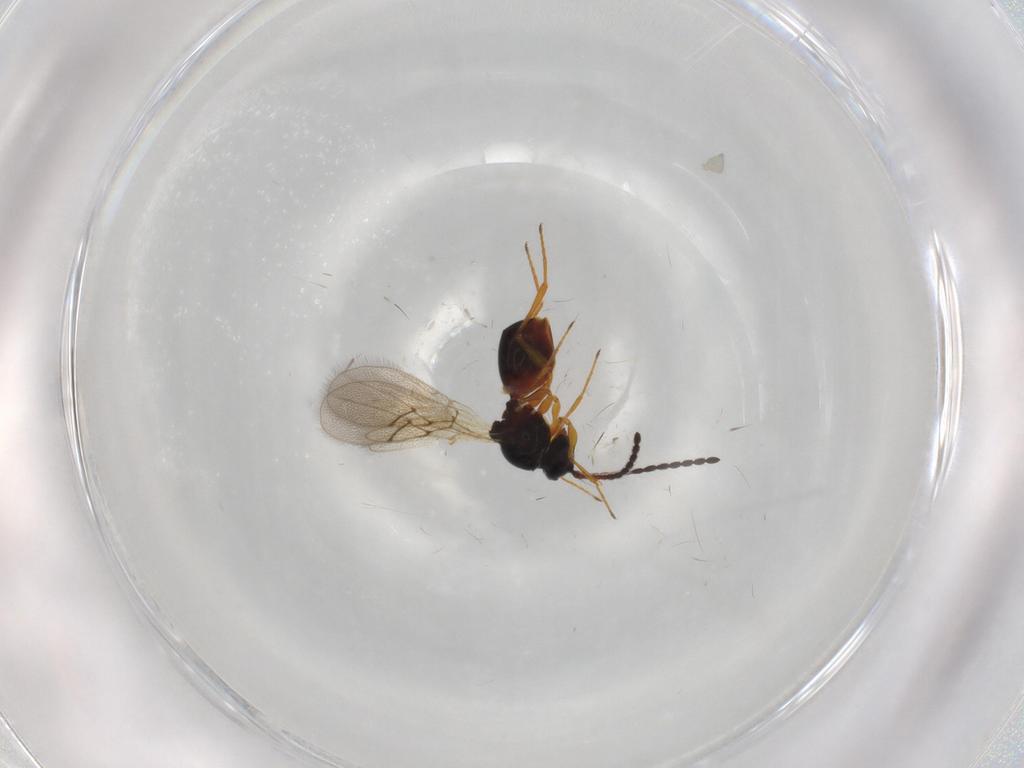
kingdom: Animalia
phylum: Arthropoda
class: Insecta
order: Hymenoptera
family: Figitidae
